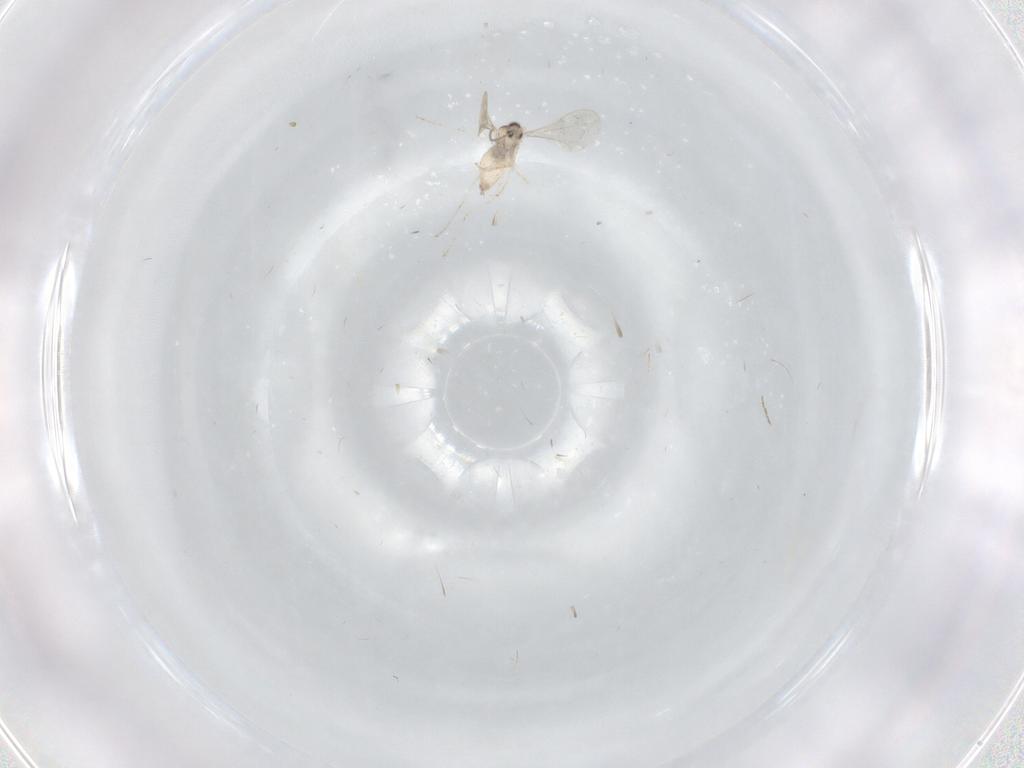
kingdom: Animalia
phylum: Arthropoda
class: Insecta
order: Diptera
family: Cecidomyiidae
